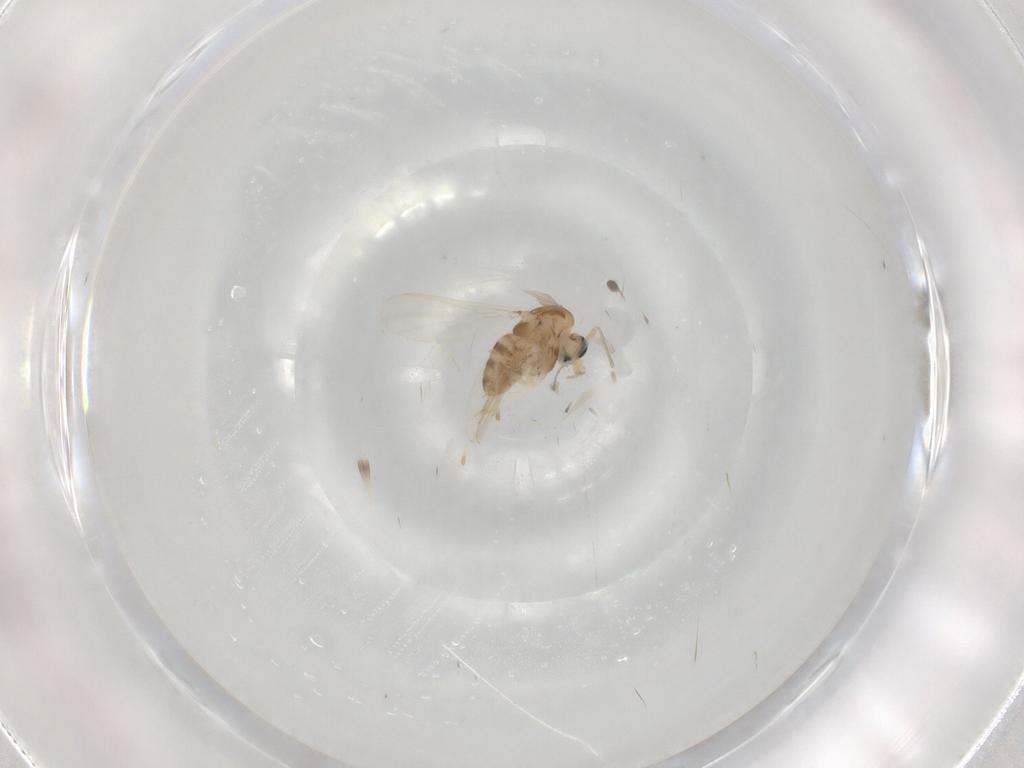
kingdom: Animalia
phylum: Arthropoda
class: Insecta
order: Diptera
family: Chironomidae
